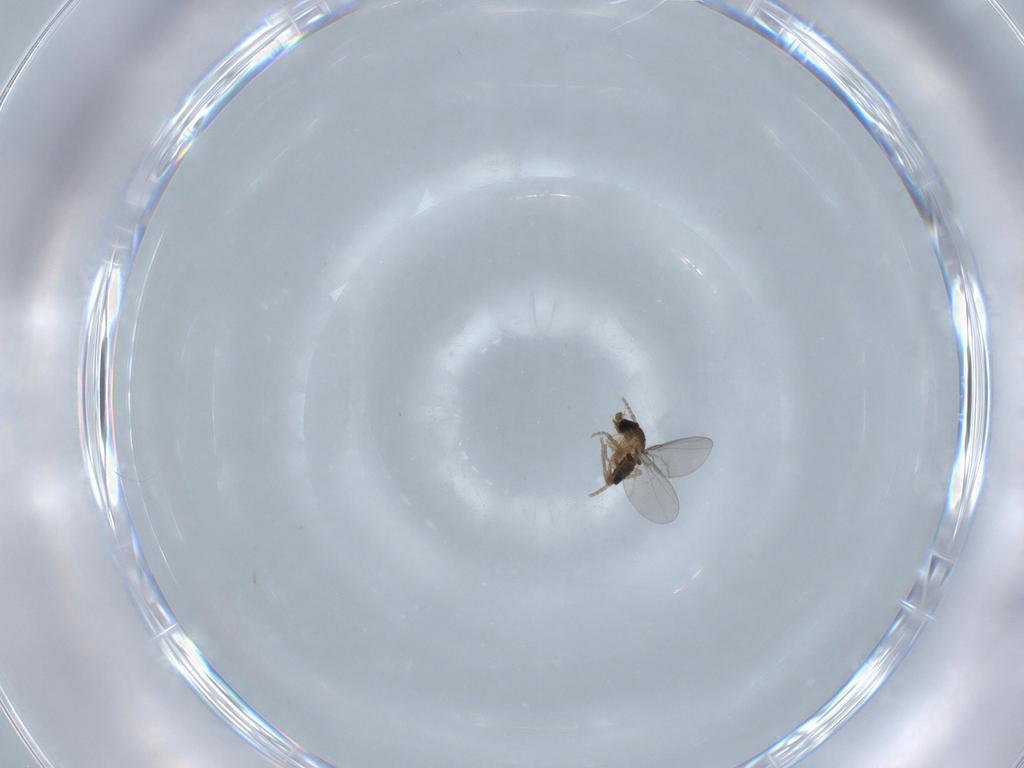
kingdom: Animalia
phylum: Arthropoda
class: Insecta
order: Diptera
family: Phoridae
